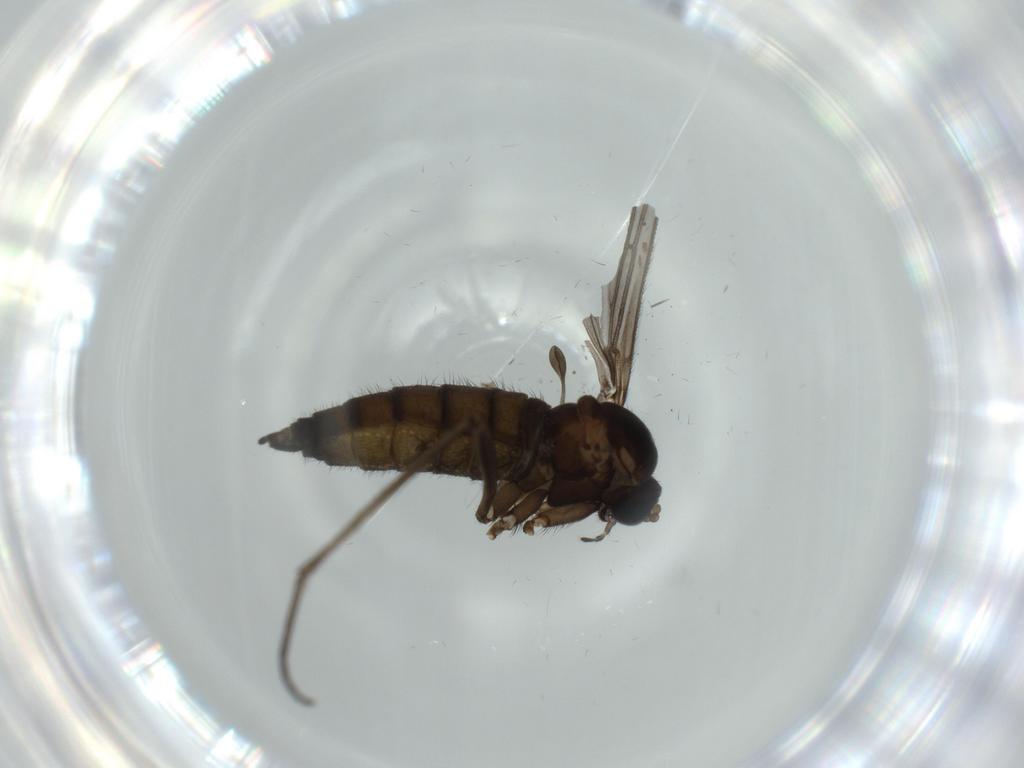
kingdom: Animalia
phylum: Arthropoda
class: Insecta
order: Diptera
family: Sciaridae
